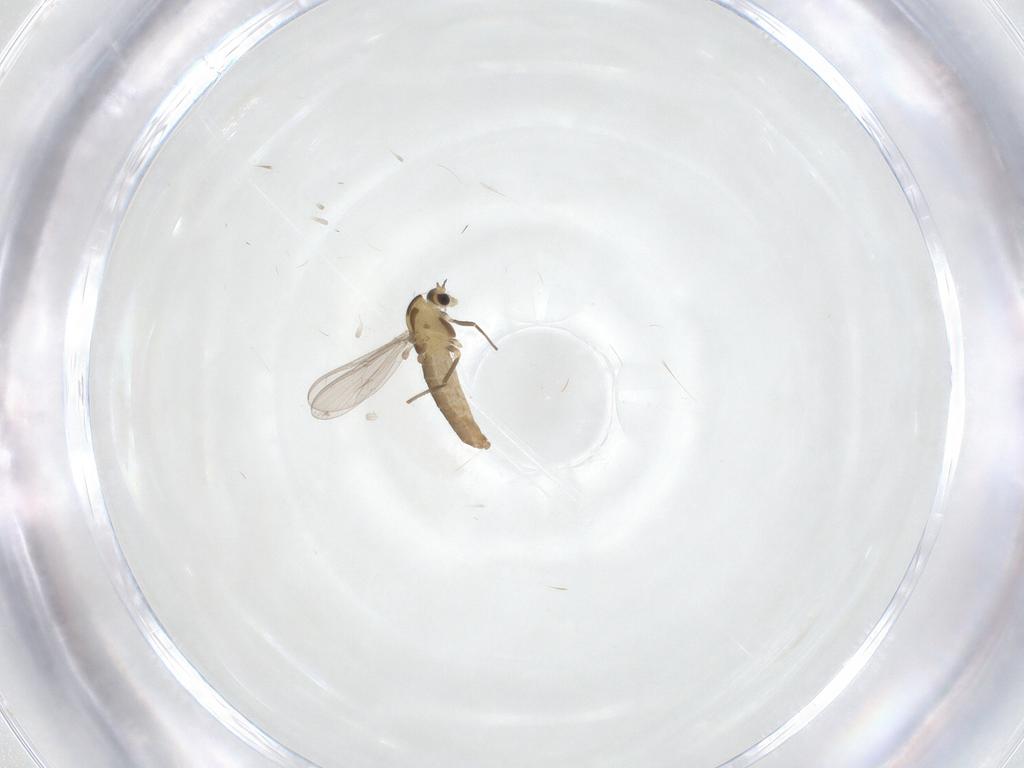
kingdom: Animalia
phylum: Arthropoda
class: Insecta
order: Diptera
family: Chironomidae
